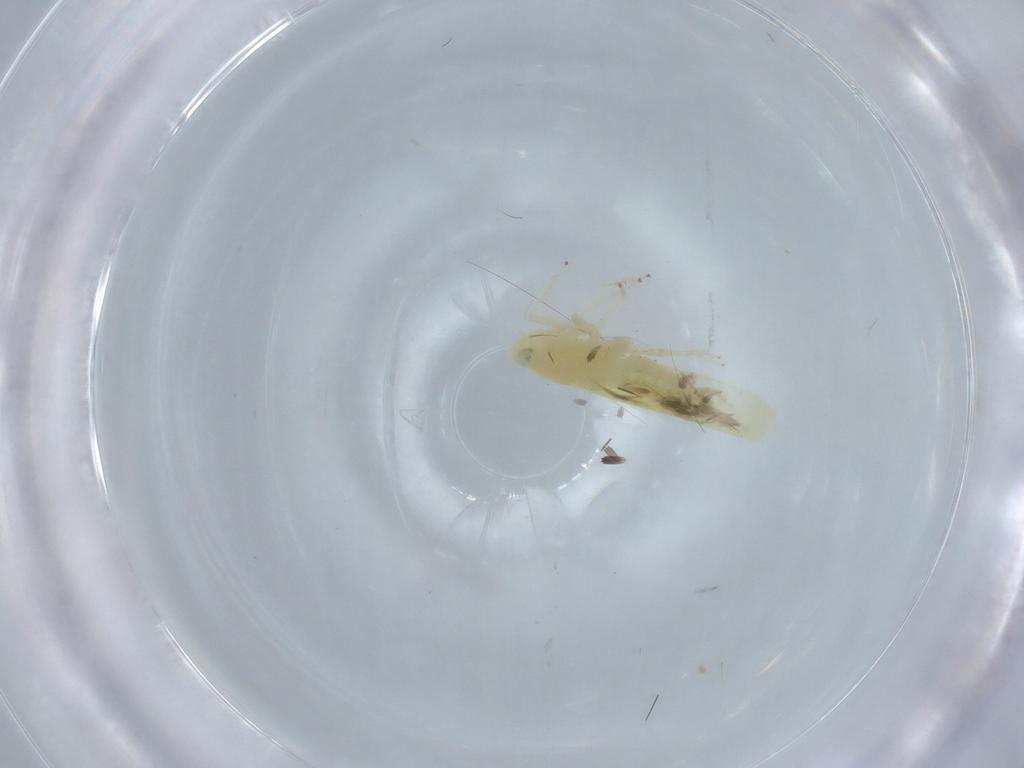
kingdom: Animalia
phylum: Arthropoda
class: Insecta
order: Hemiptera
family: Cicadellidae
